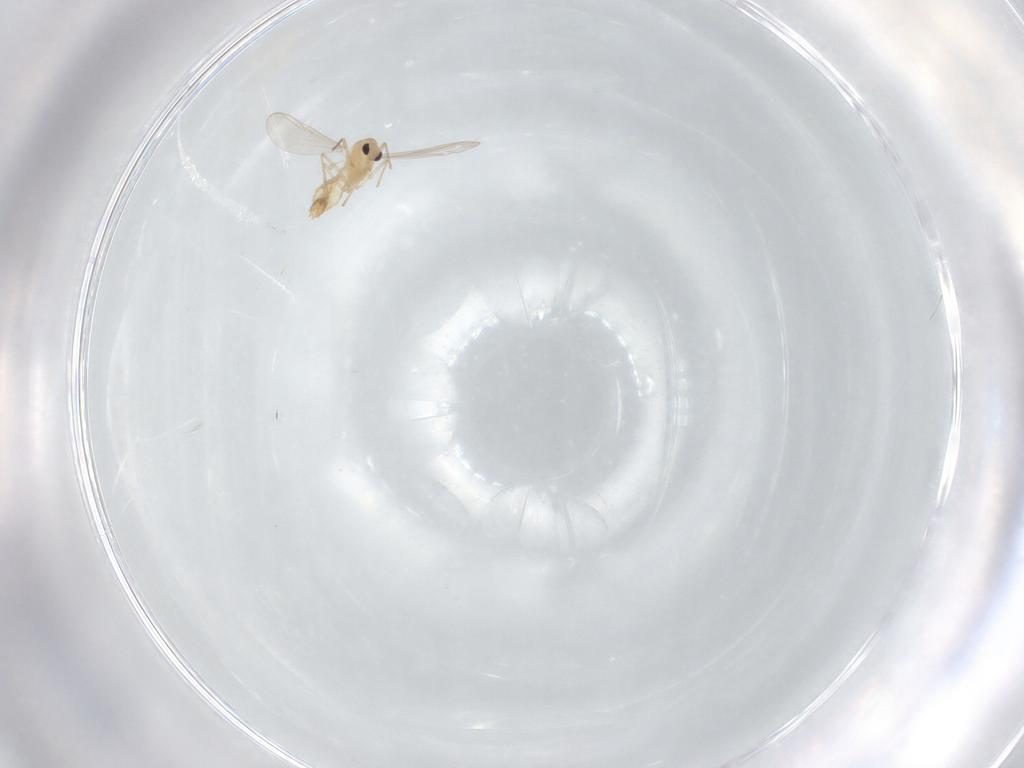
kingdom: Animalia
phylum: Arthropoda
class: Insecta
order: Diptera
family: Chironomidae
